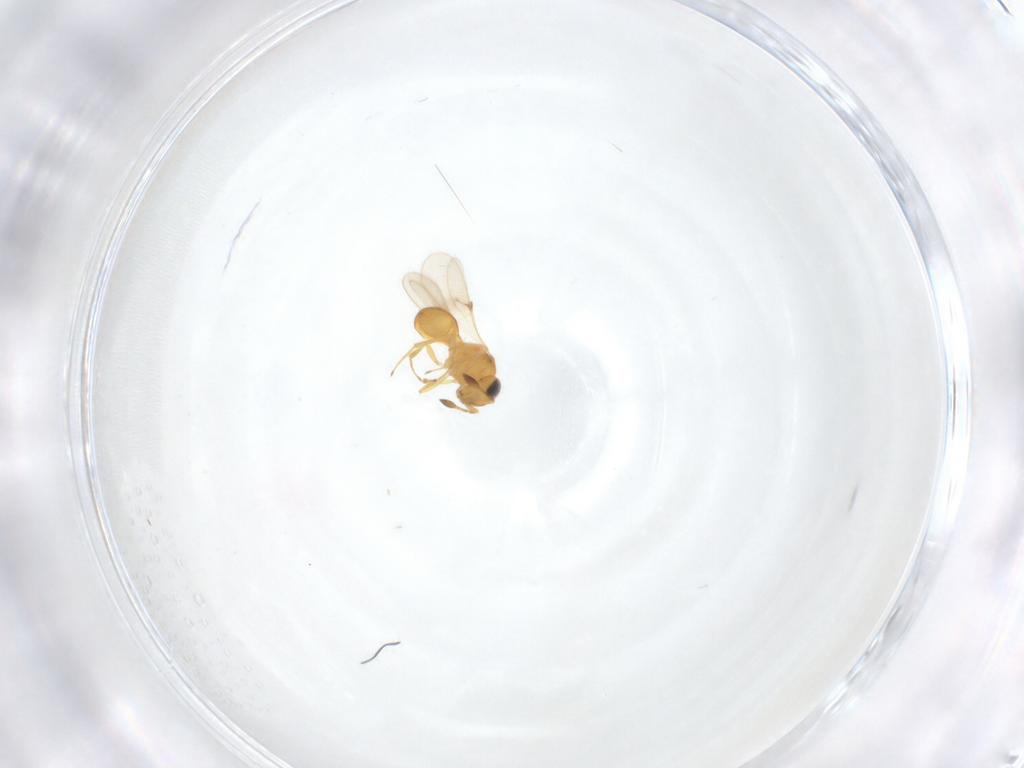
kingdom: Animalia
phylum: Arthropoda
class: Insecta
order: Hymenoptera
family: Scelionidae
